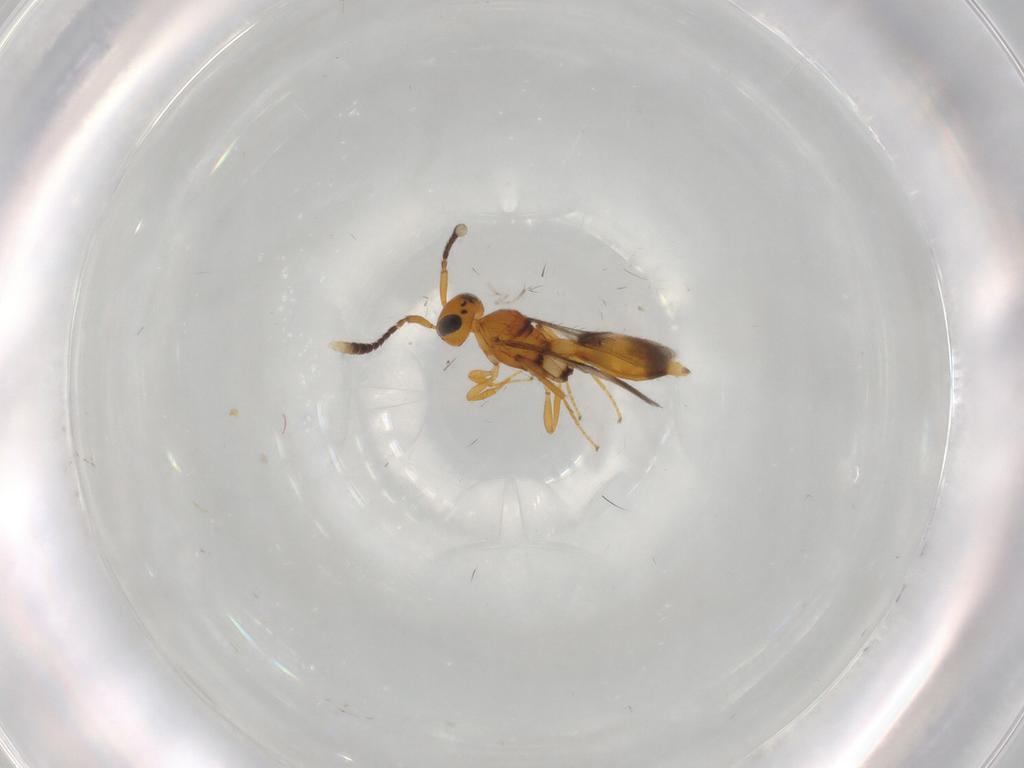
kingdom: Animalia
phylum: Arthropoda
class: Insecta
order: Hymenoptera
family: Scelionidae
